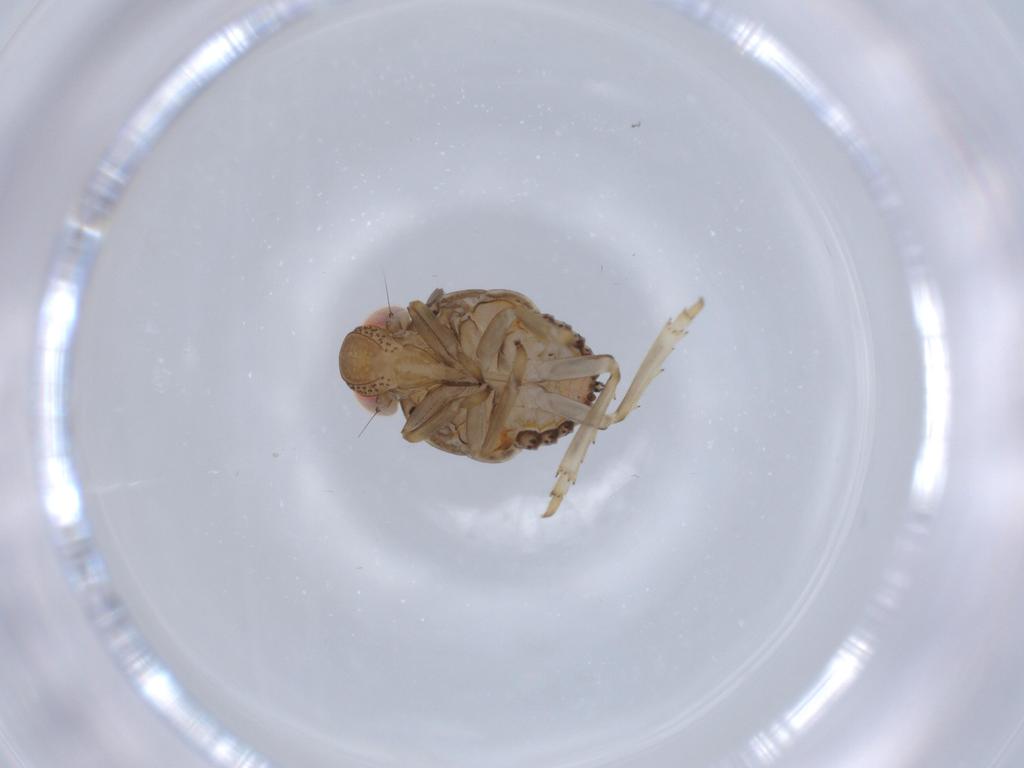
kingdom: Animalia
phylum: Arthropoda
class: Insecta
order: Hemiptera
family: Issidae
